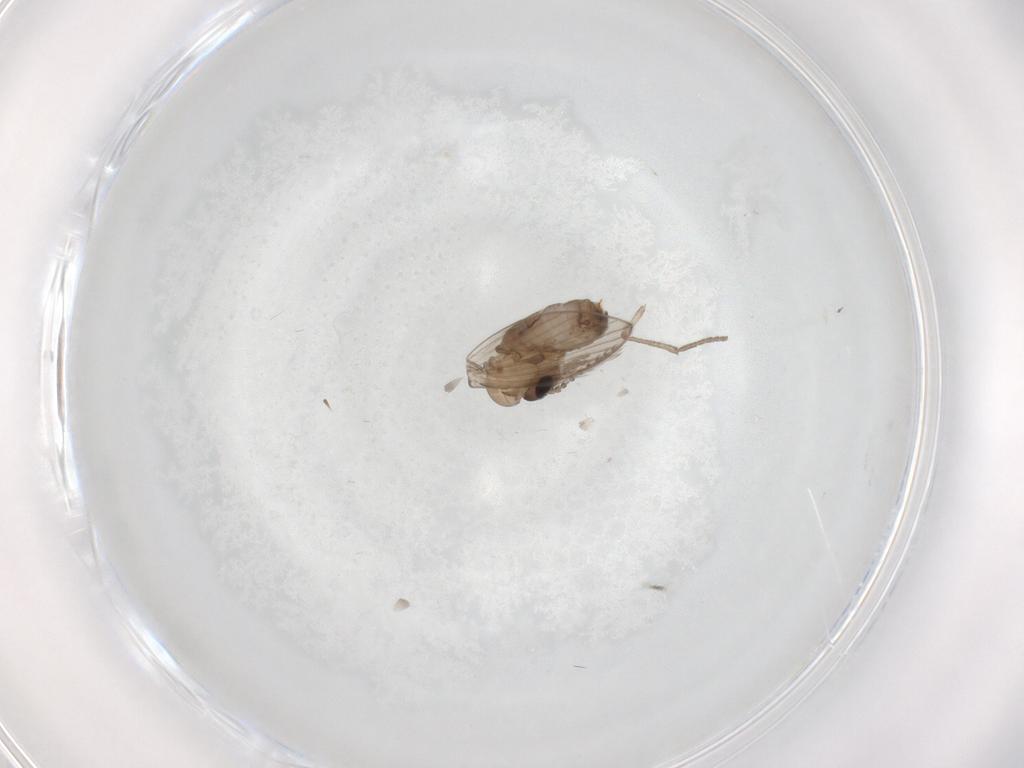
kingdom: Animalia
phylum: Arthropoda
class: Insecta
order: Diptera
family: Psychodidae
